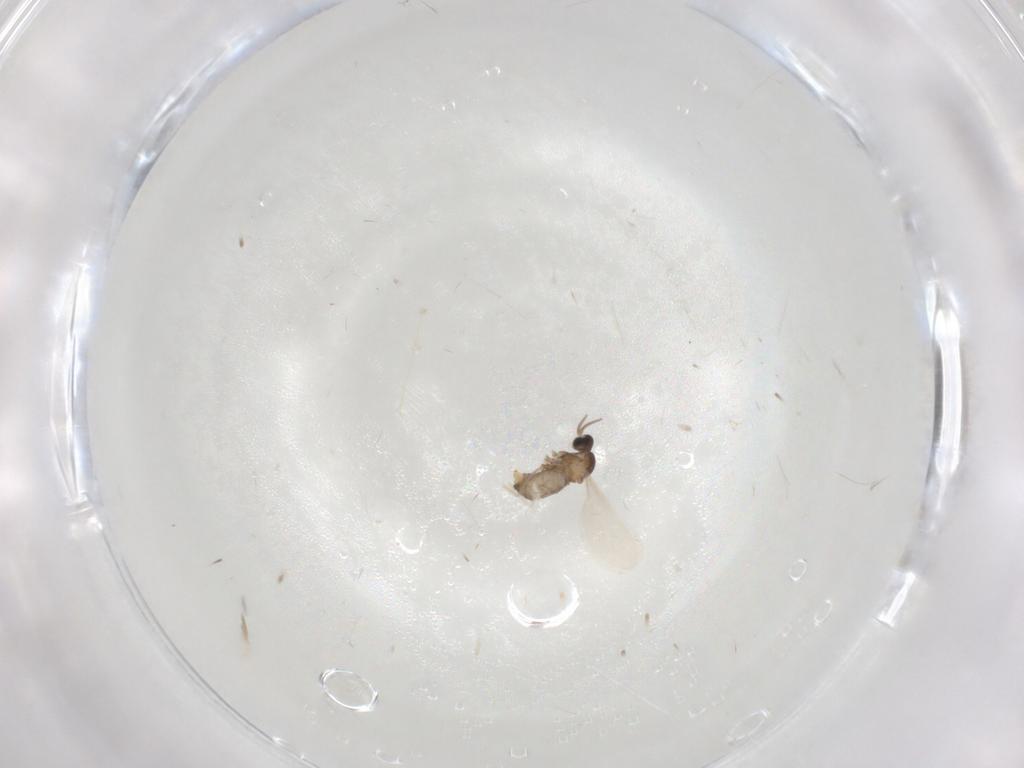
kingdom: Animalia
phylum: Arthropoda
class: Insecta
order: Diptera
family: Cecidomyiidae
